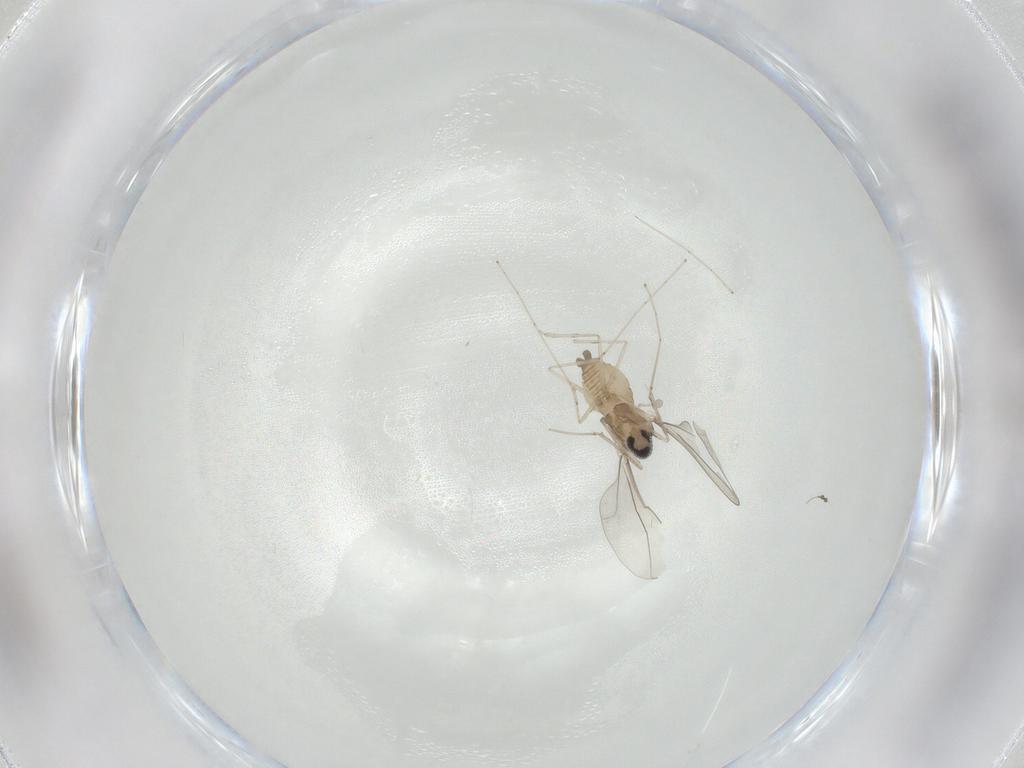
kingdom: Animalia
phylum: Arthropoda
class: Insecta
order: Diptera
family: Cecidomyiidae
